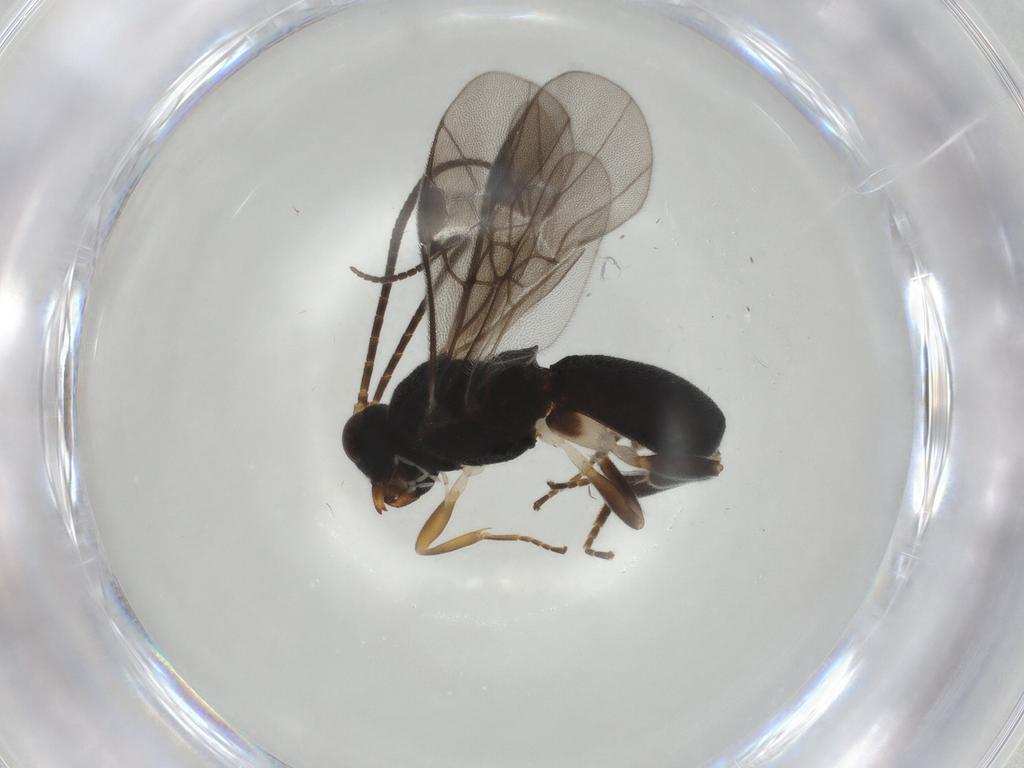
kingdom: Animalia
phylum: Arthropoda
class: Insecta
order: Hymenoptera
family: Braconidae
